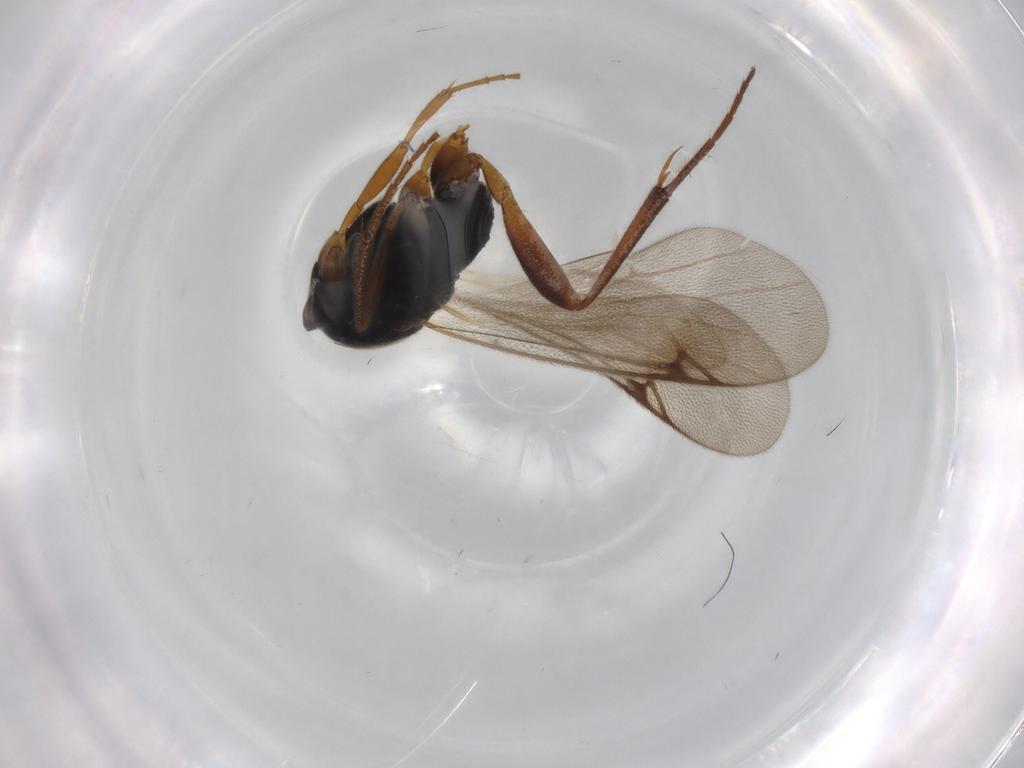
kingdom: Animalia
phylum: Arthropoda
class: Insecta
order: Hymenoptera
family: Proctotrupidae
